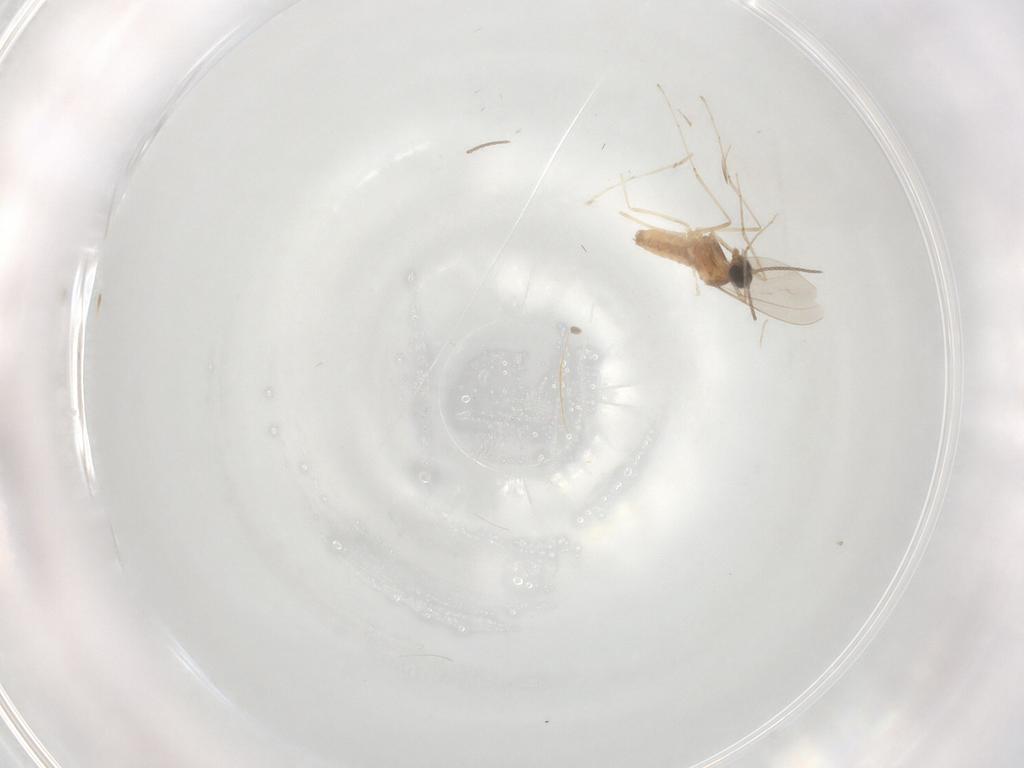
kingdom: Animalia
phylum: Arthropoda
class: Insecta
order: Diptera
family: Cecidomyiidae
